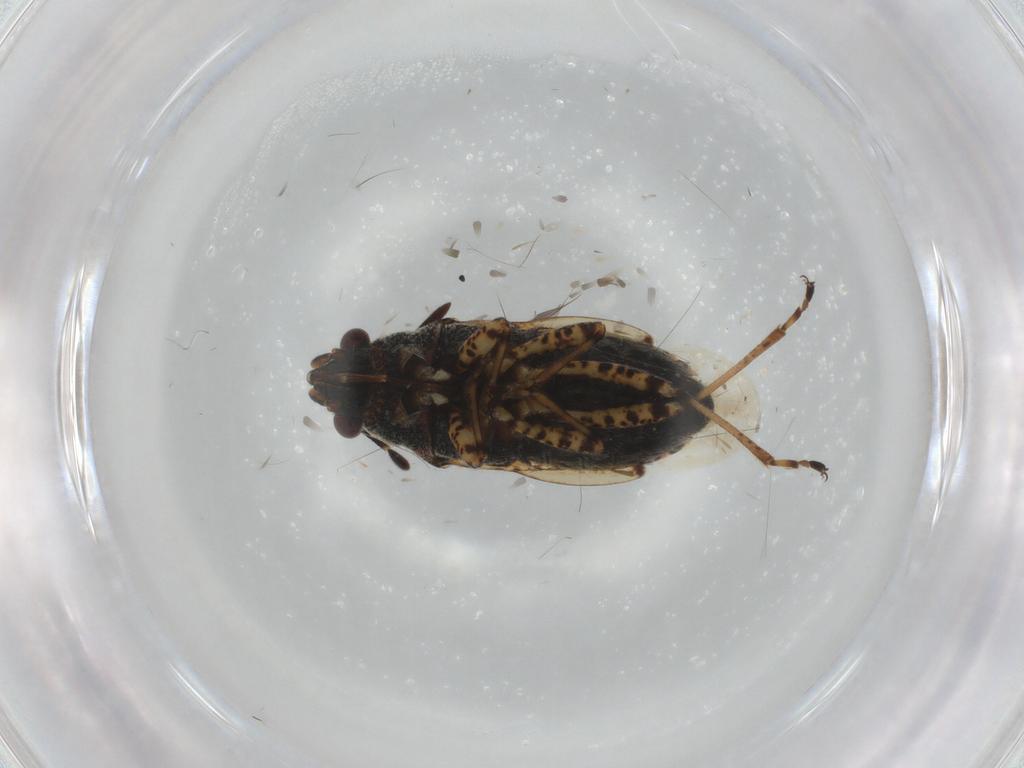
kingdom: Animalia
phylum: Arthropoda
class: Insecta
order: Hemiptera
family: Lygaeidae
